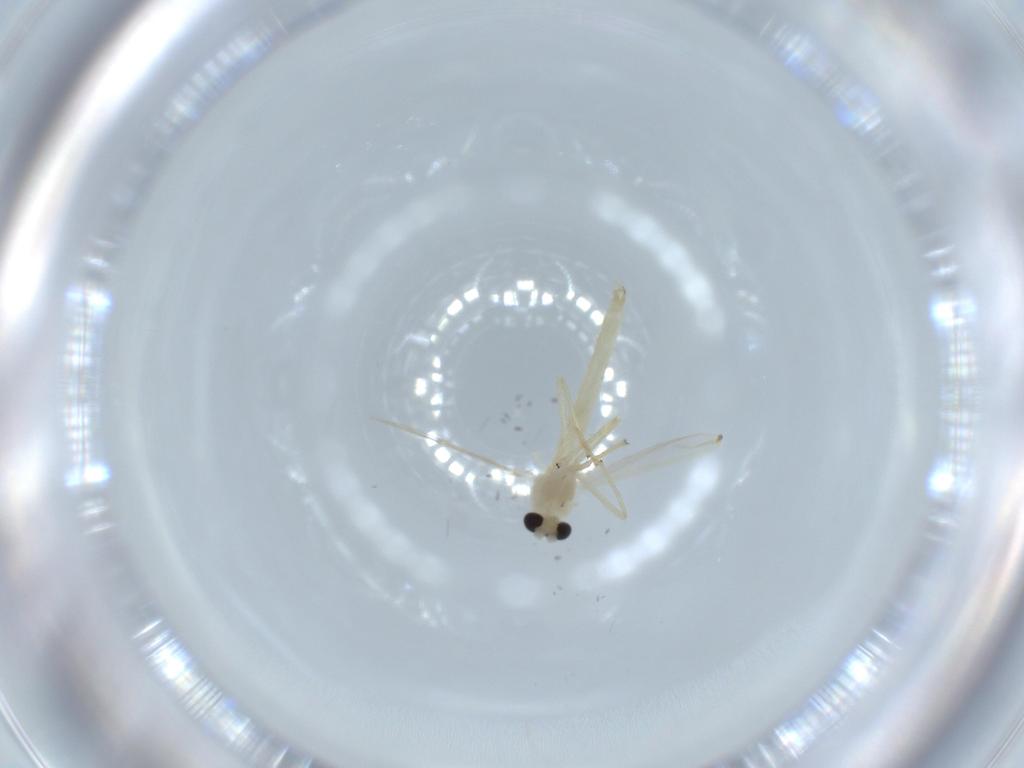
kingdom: Animalia
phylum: Arthropoda
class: Insecta
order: Diptera
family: Chironomidae
